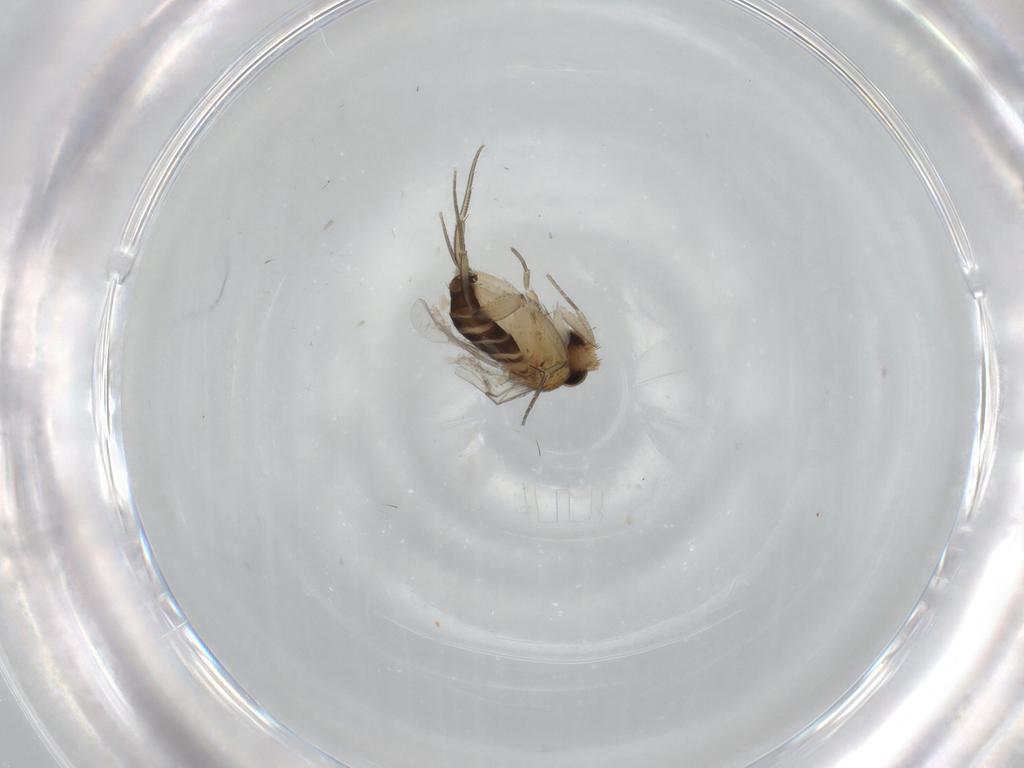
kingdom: Animalia
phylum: Arthropoda
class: Insecta
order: Diptera
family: Phoridae
